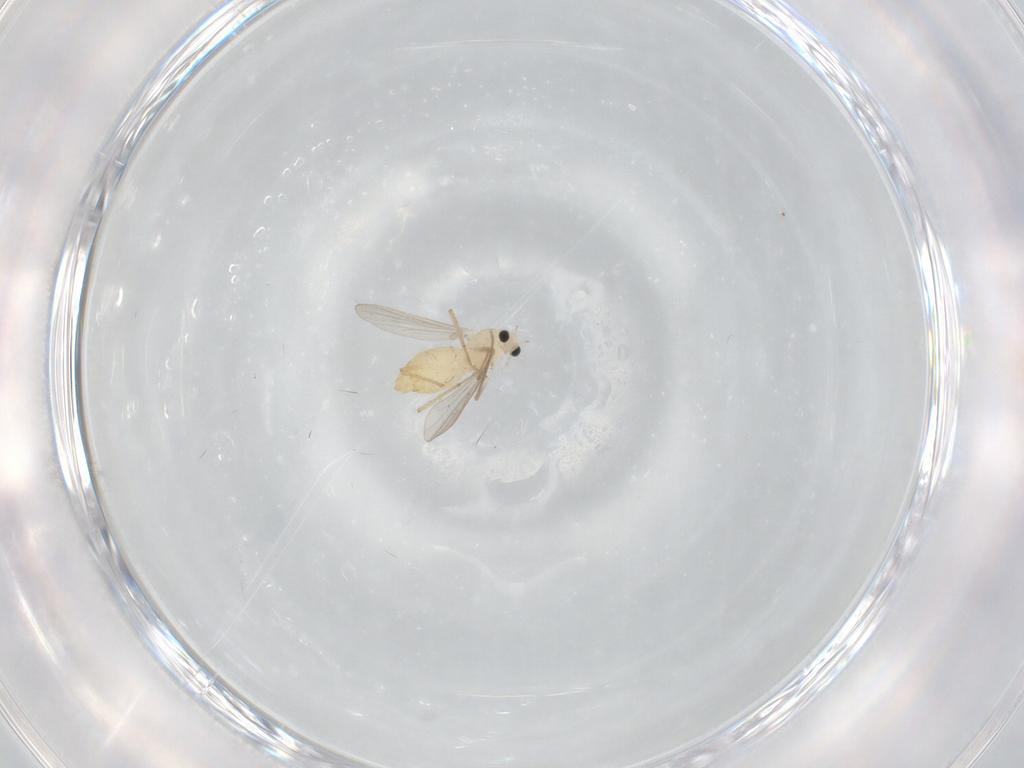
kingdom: Animalia
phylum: Arthropoda
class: Insecta
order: Diptera
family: Chironomidae
